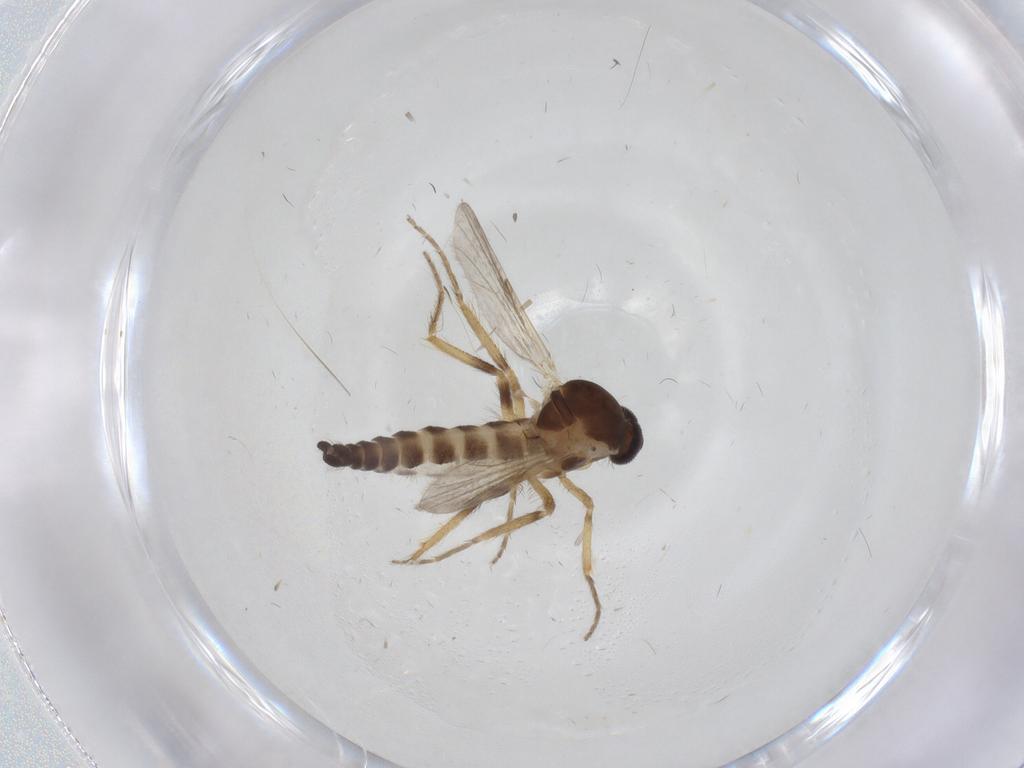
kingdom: Animalia
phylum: Arthropoda
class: Insecta
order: Diptera
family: Ceratopogonidae
